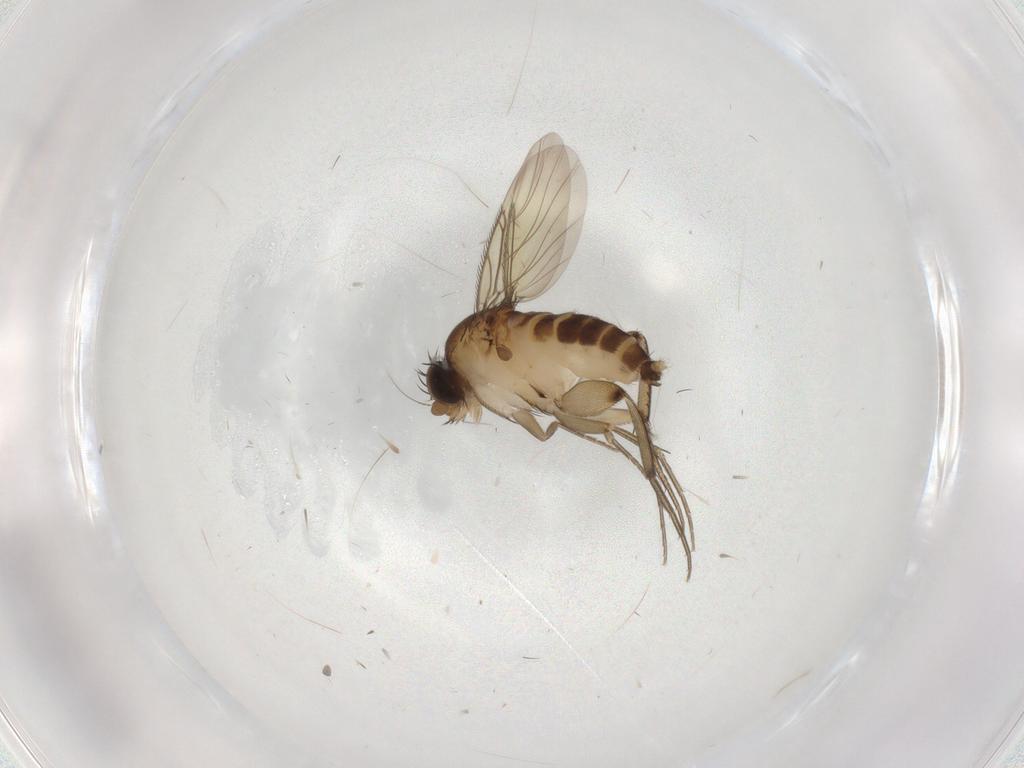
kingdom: Animalia
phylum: Arthropoda
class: Insecta
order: Diptera
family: Phoridae
